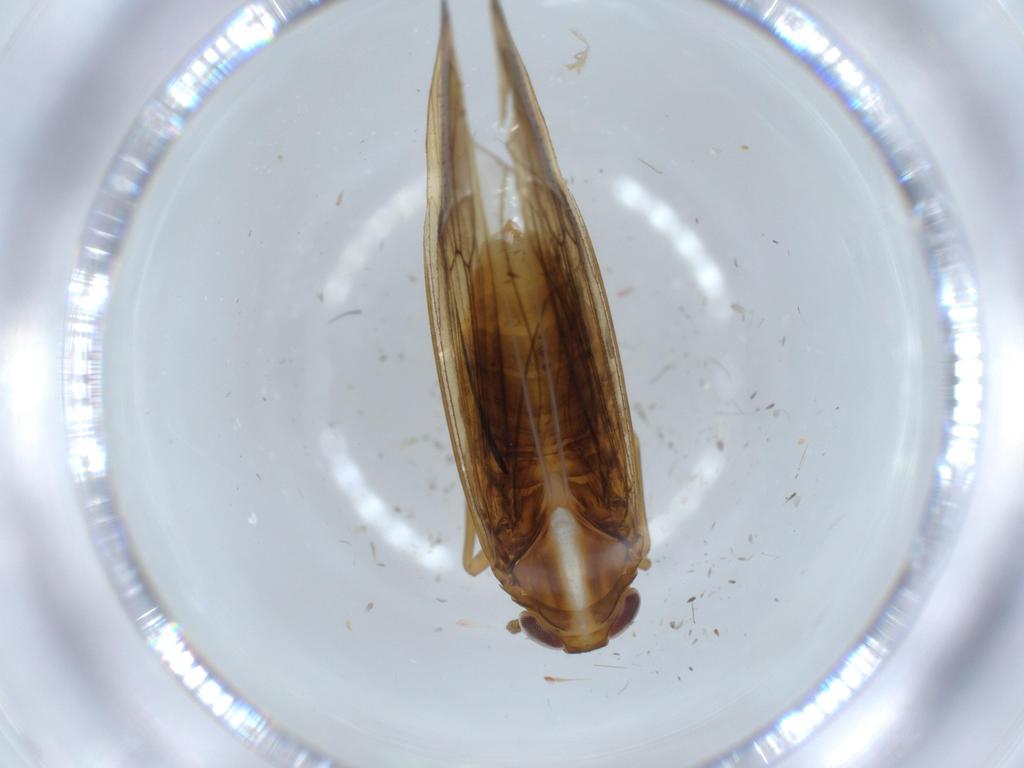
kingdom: Animalia
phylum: Arthropoda
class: Insecta
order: Hemiptera
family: Delphacidae
